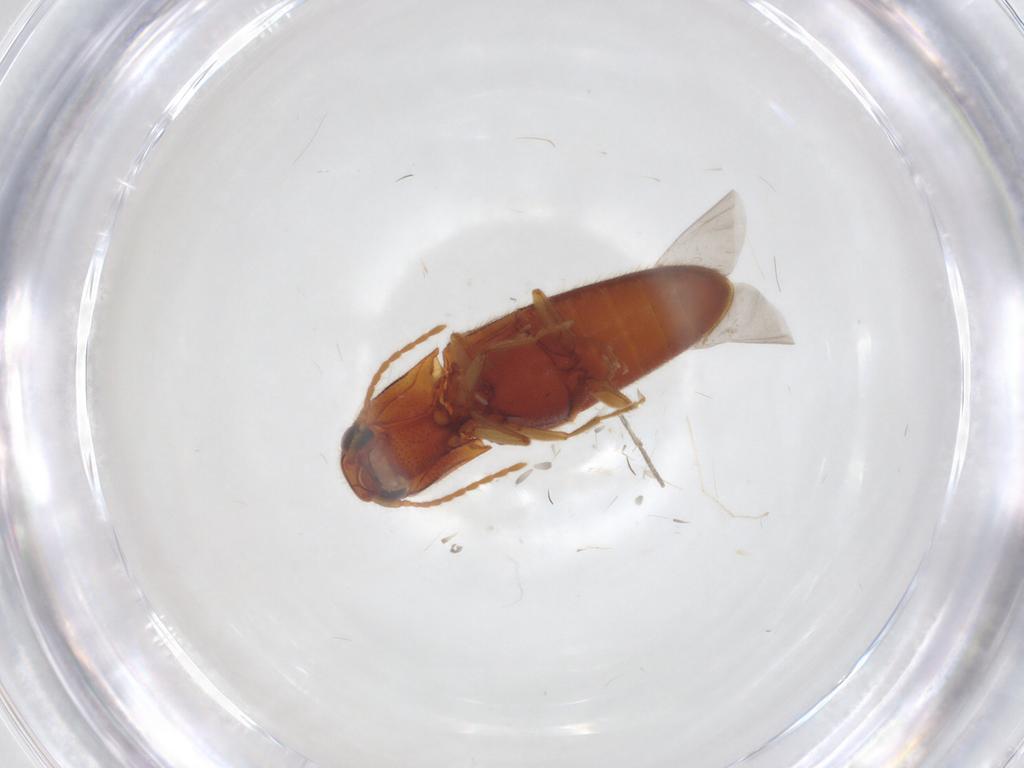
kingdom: Animalia
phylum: Arthropoda
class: Insecta
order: Coleoptera
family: Elateridae
